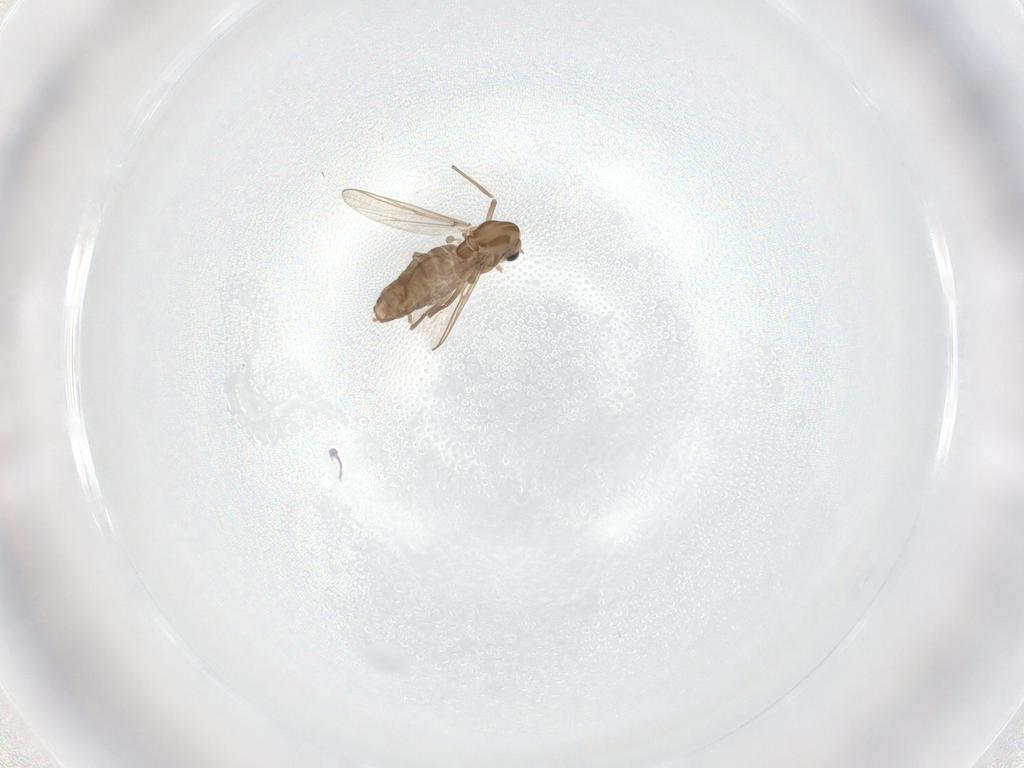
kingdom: Animalia
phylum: Arthropoda
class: Insecta
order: Diptera
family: Chironomidae
